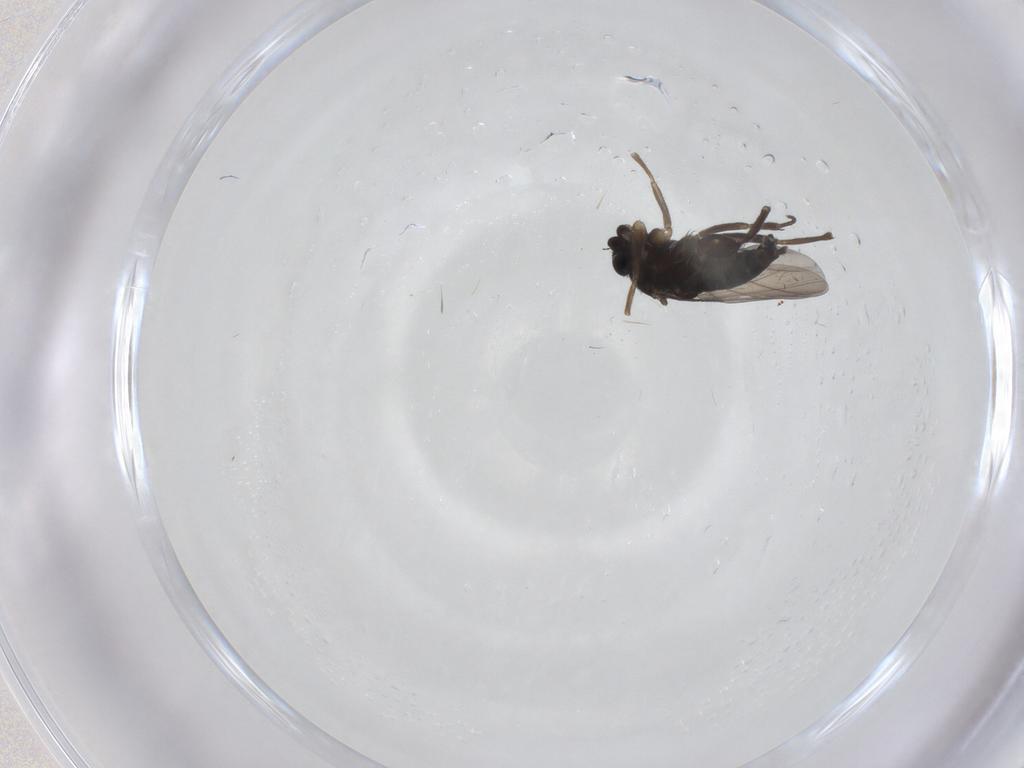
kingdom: Animalia
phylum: Arthropoda
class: Insecta
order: Diptera
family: Phoridae
